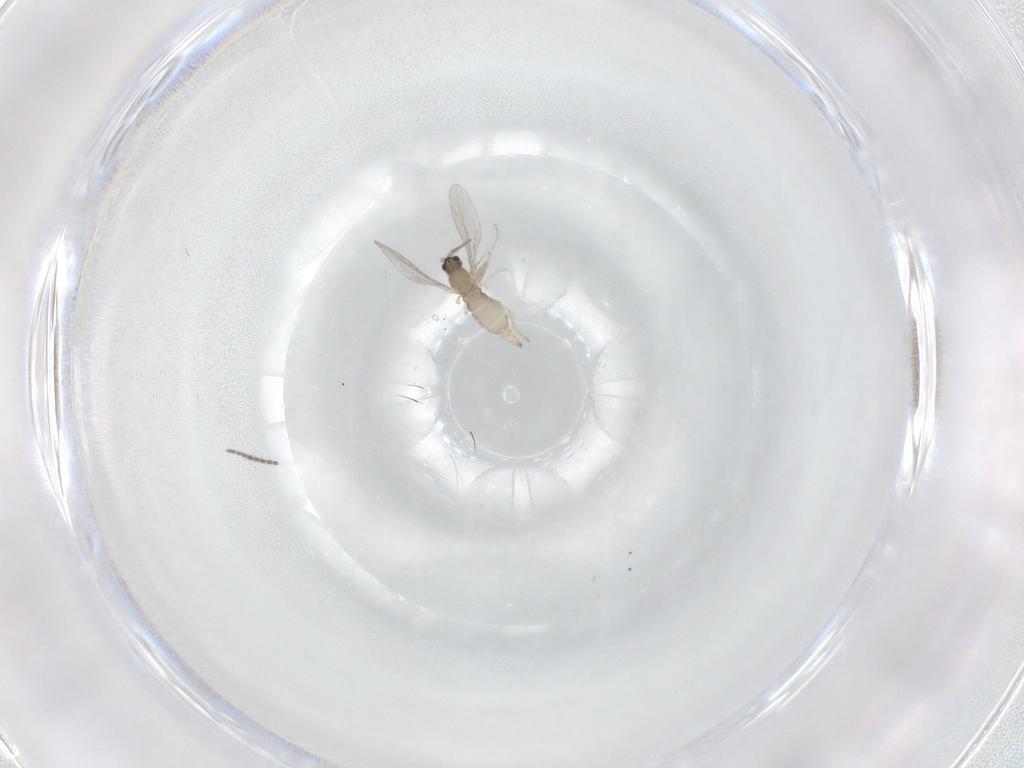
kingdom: Animalia
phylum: Arthropoda
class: Insecta
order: Diptera
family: Cecidomyiidae
